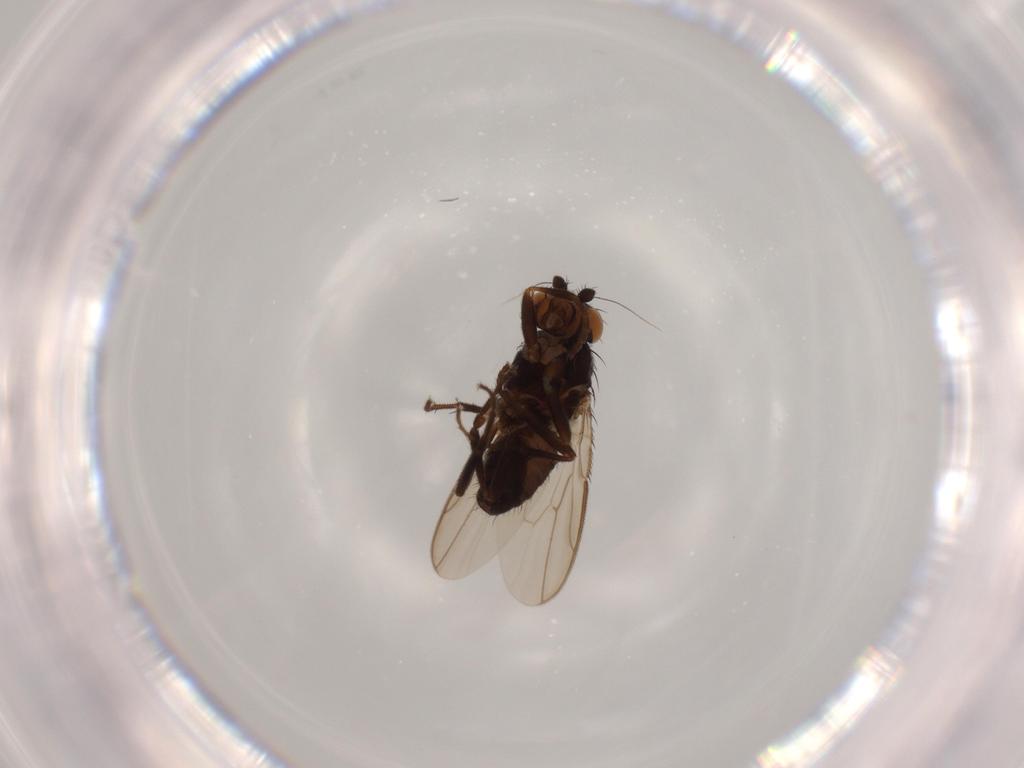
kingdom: Animalia
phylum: Arthropoda
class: Insecta
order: Diptera
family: Sphaeroceridae
